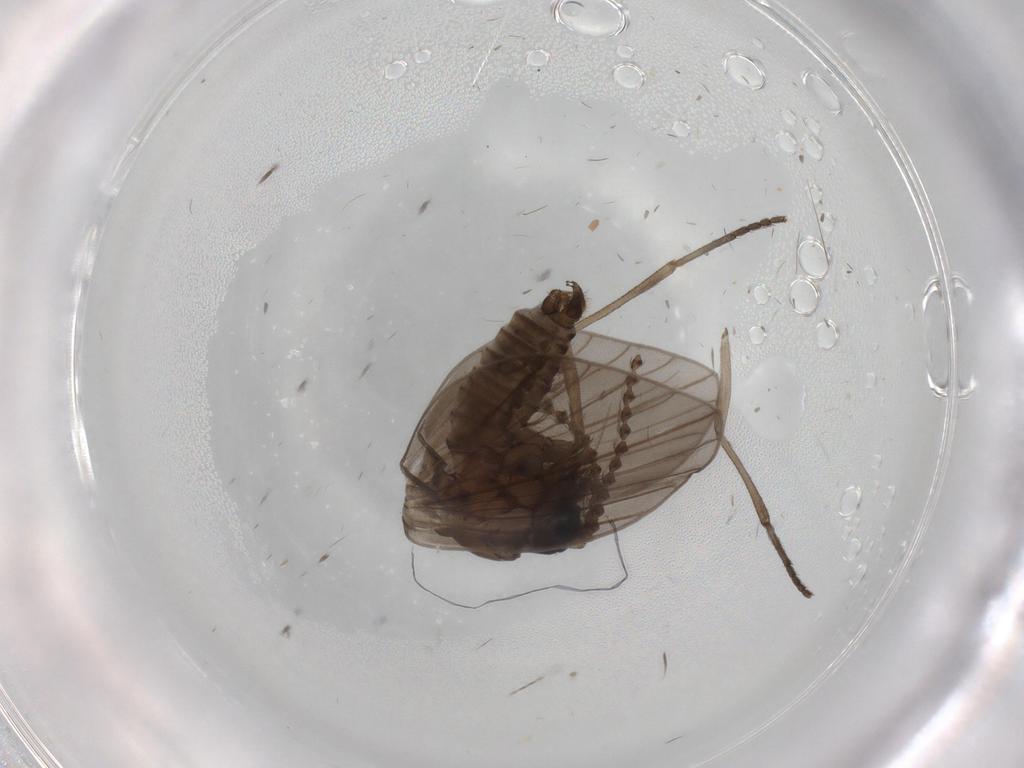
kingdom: Animalia
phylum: Arthropoda
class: Insecta
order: Diptera
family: Psychodidae
